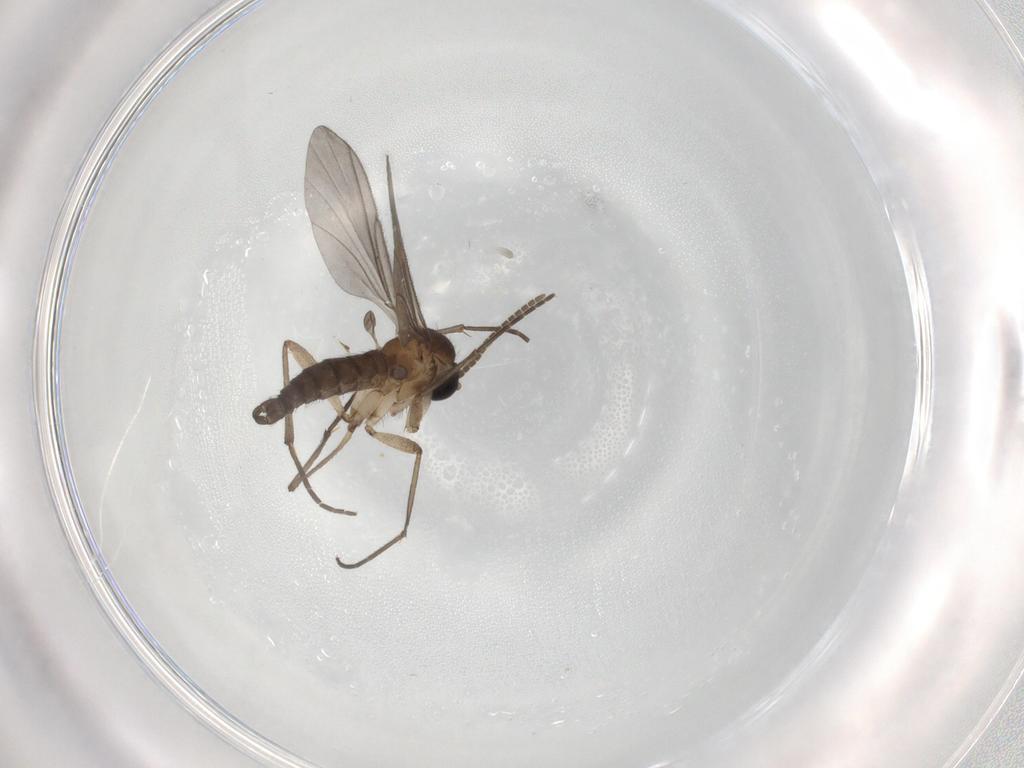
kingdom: Animalia
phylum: Arthropoda
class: Insecta
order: Diptera
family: Sciaridae
